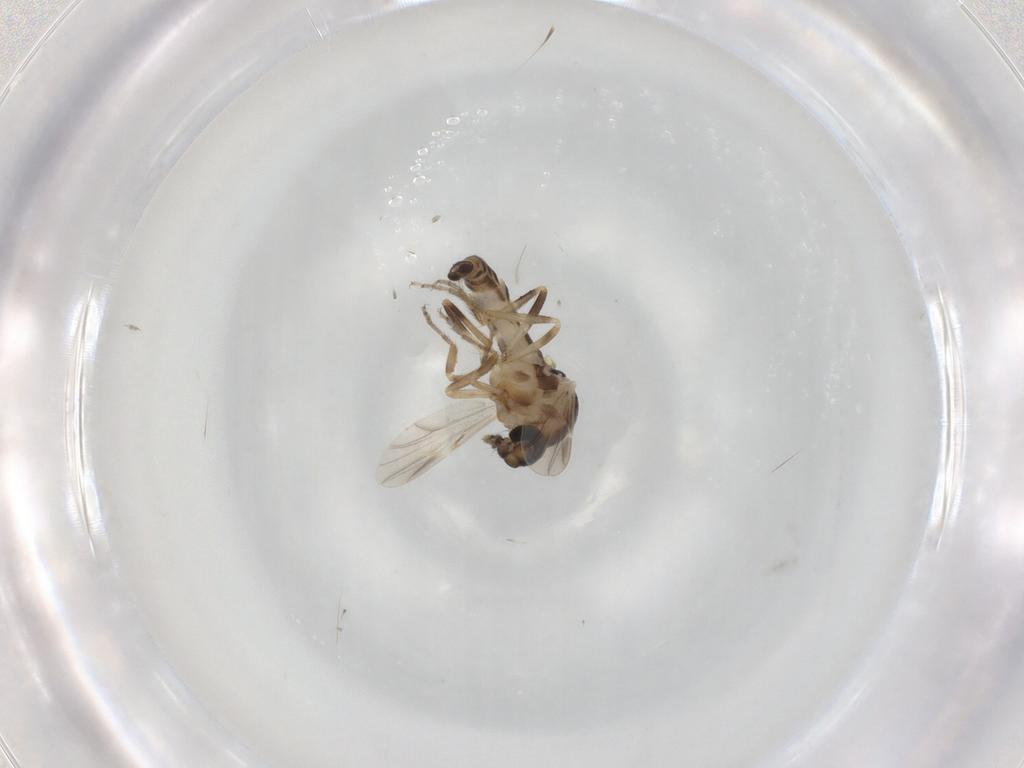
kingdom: Animalia
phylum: Arthropoda
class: Insecta
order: Diptera
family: Ceratopogonidae
